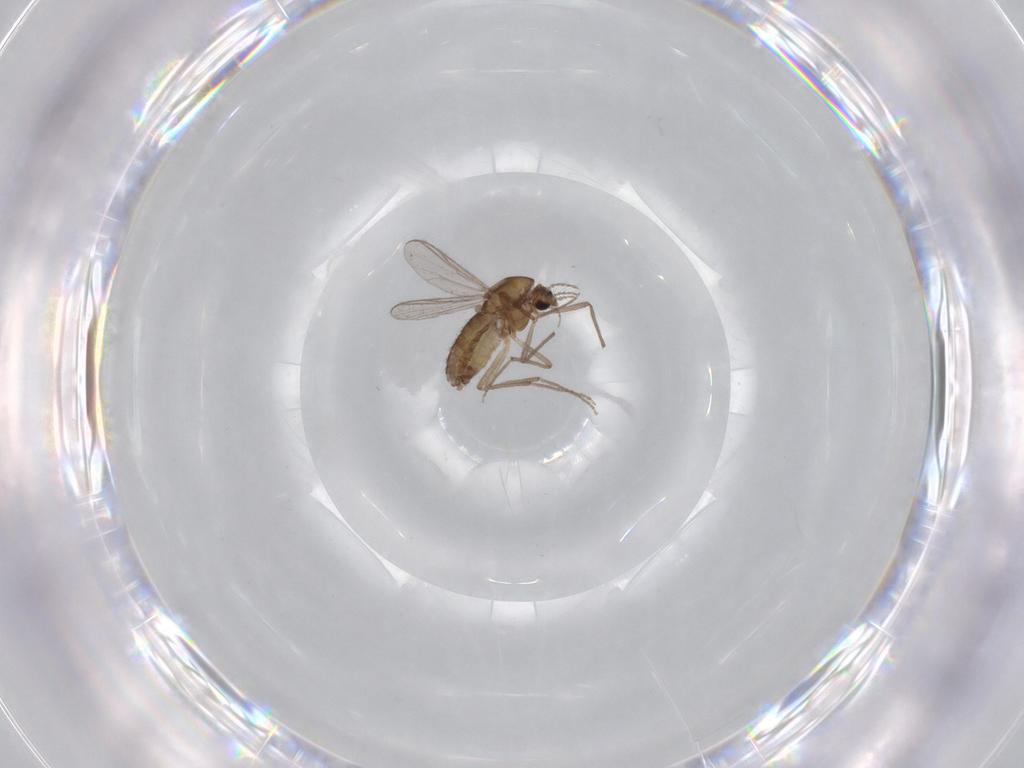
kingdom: Animalia
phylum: Arthropoda
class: Insecta
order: Diptera
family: Chironomidae
